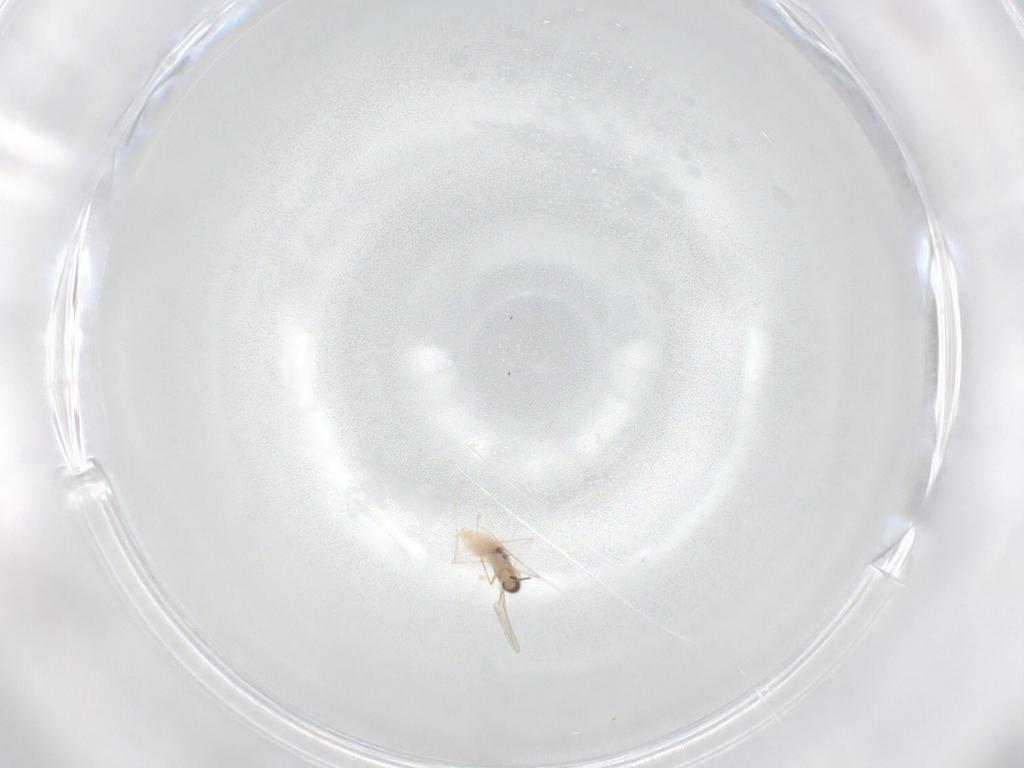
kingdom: Animalia
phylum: Arthropoda
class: Insecta
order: Diptera
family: Cecidomyiidae
